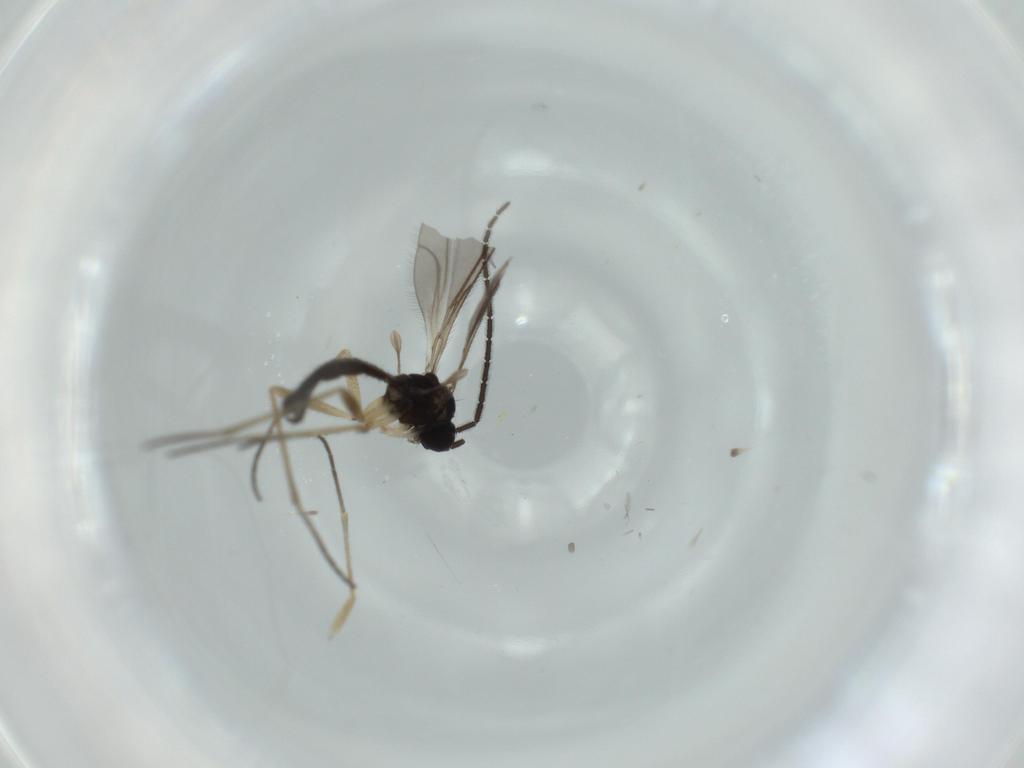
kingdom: Animalia
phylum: Arthropoda
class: Insecta
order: Diptera
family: Sciaridae
